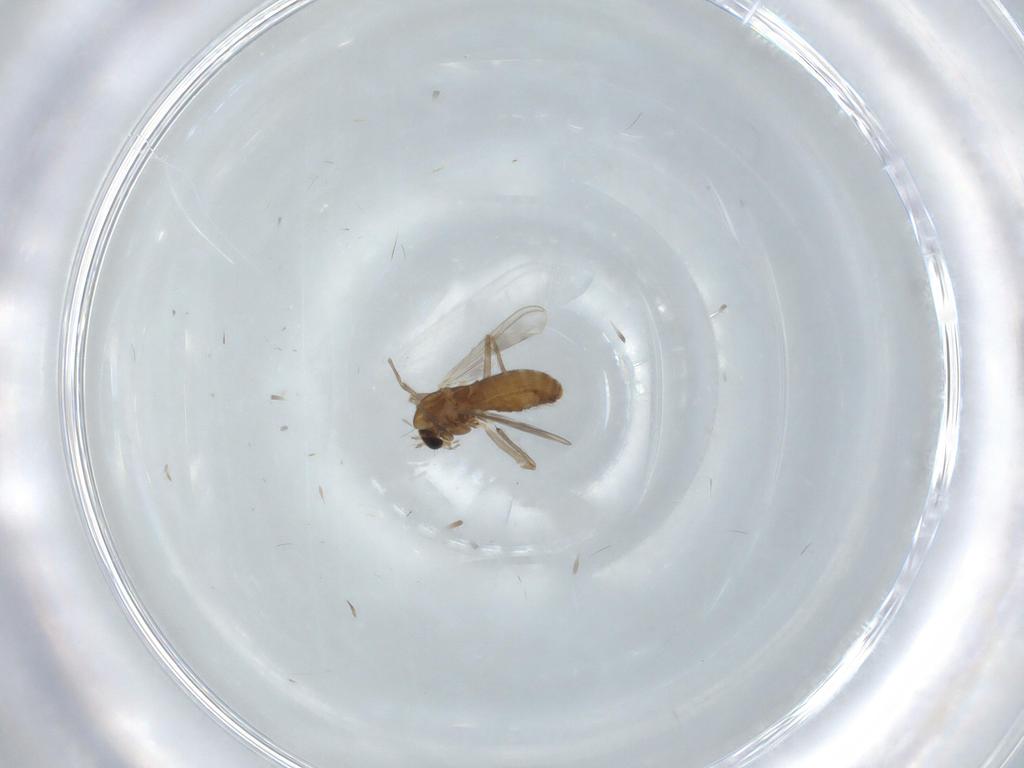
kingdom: Animalia
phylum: Arthropoda
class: Insecta
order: Diptera
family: Chironomidae
